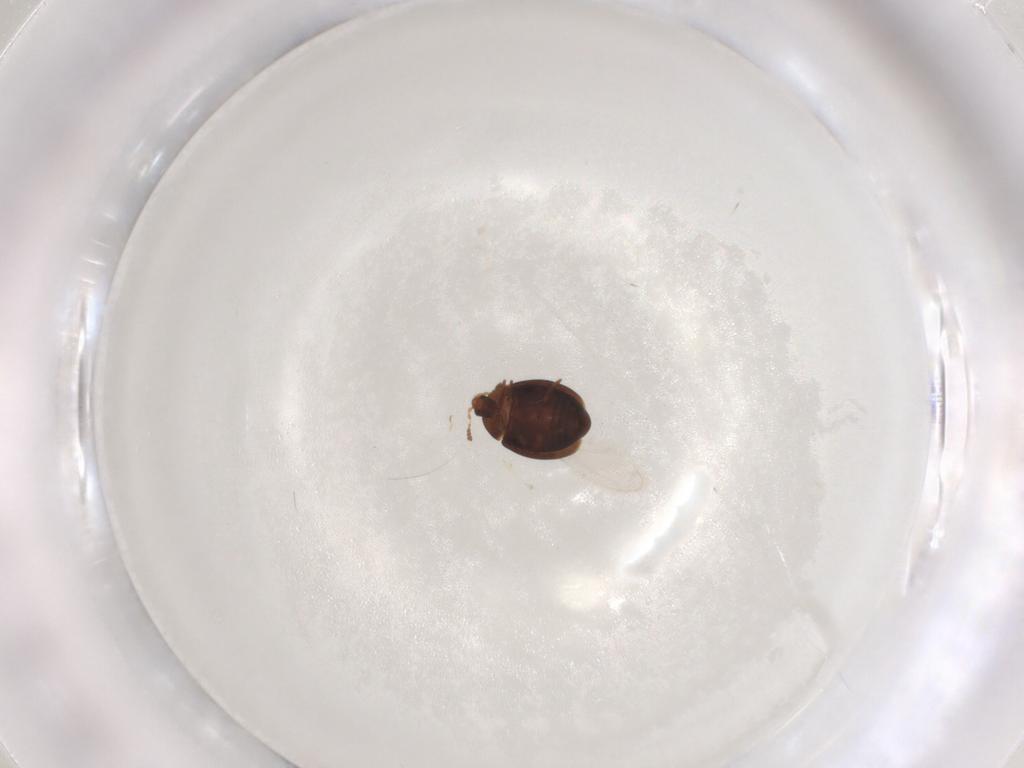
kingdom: Animalia
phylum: Arthropoda
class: Insecta
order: Coleoptera
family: Corylophidae
